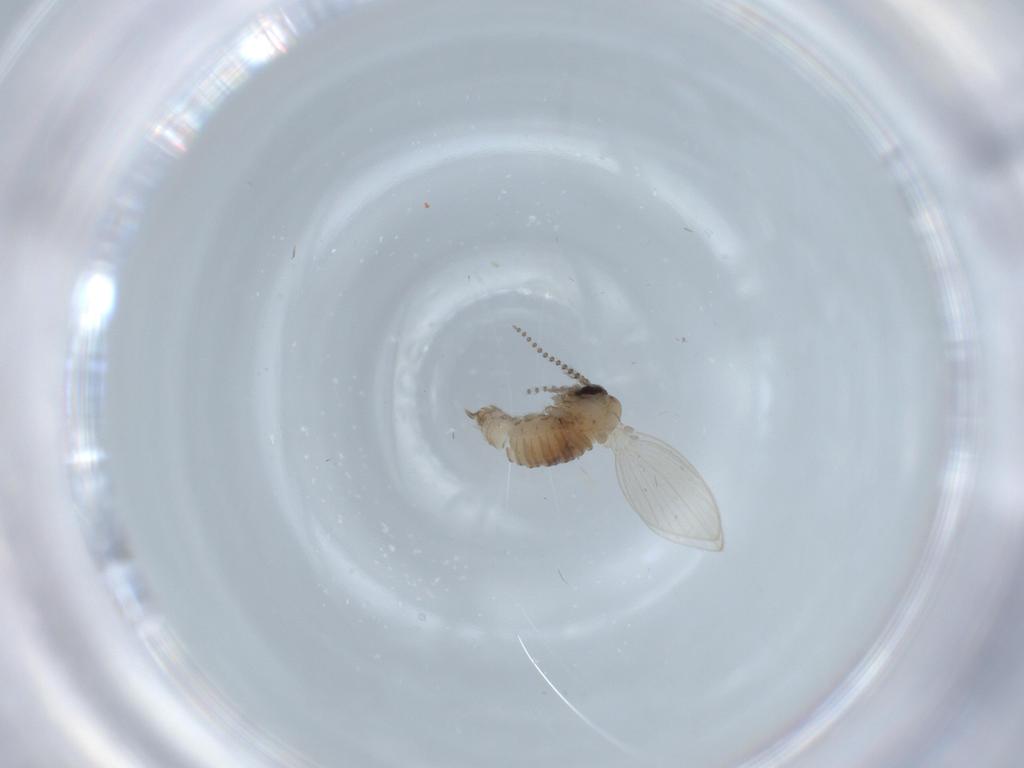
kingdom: Animalia
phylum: Arthropoda
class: Insecta
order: Diptera
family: Psychodidae
